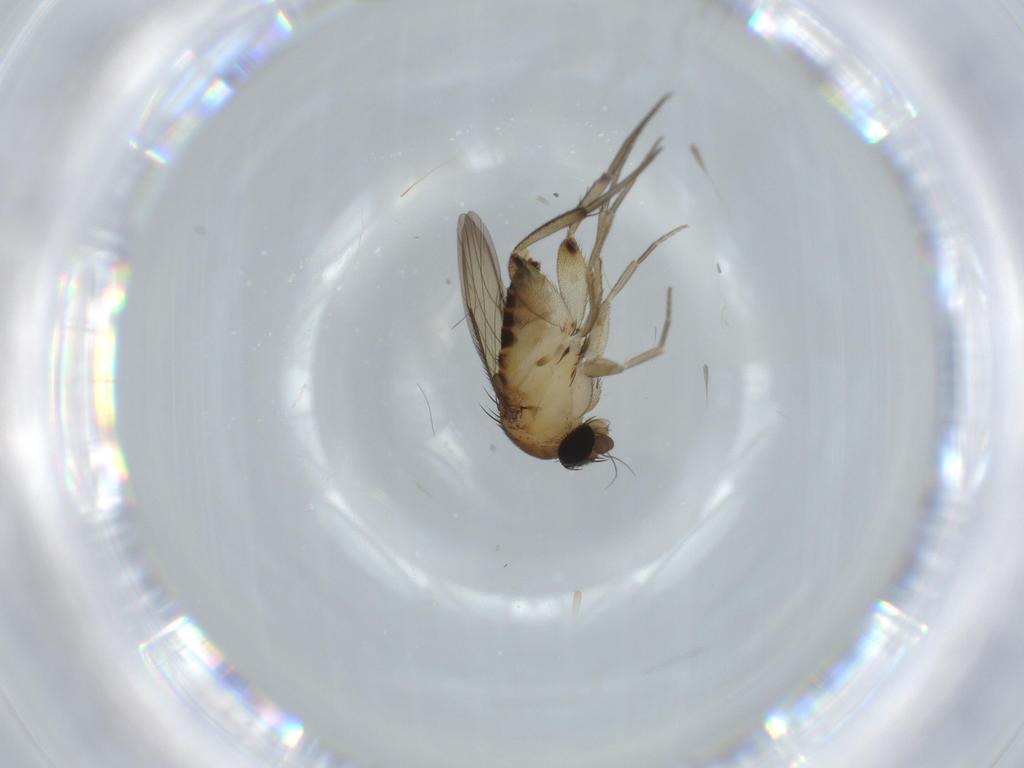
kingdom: Animalia
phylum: Arthropoda
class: Insecta
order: Diptera
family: Phoridae
